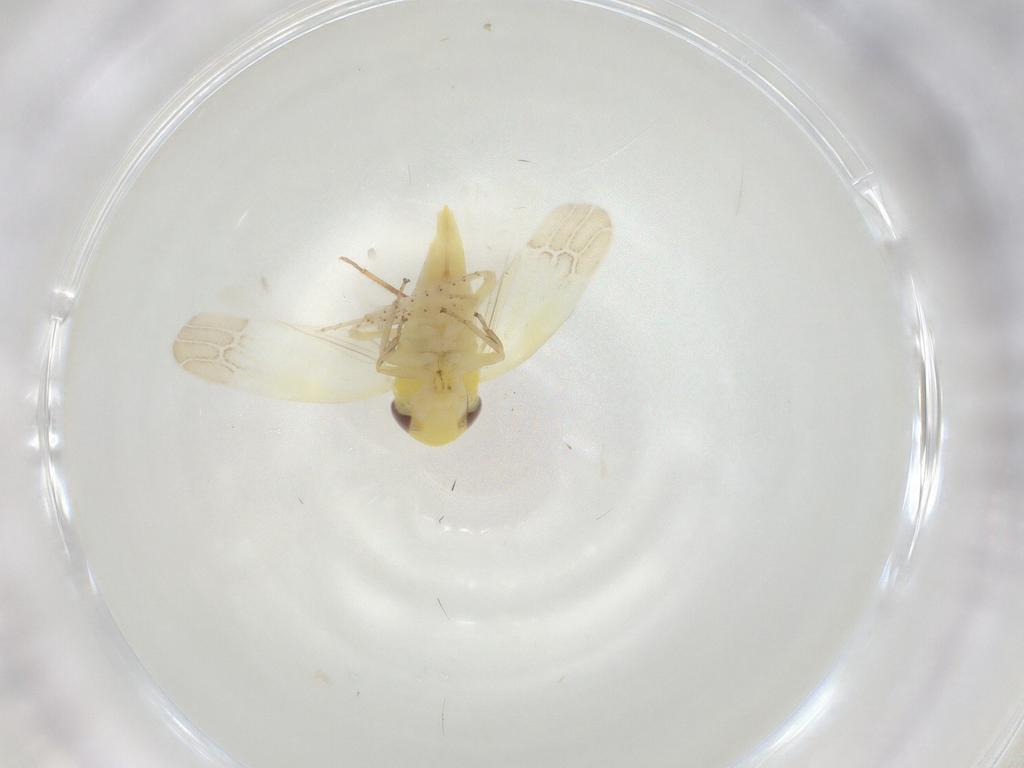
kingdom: Animalia
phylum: Arthropoda
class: Insecta
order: Hemiptera
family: Cicadellidae
